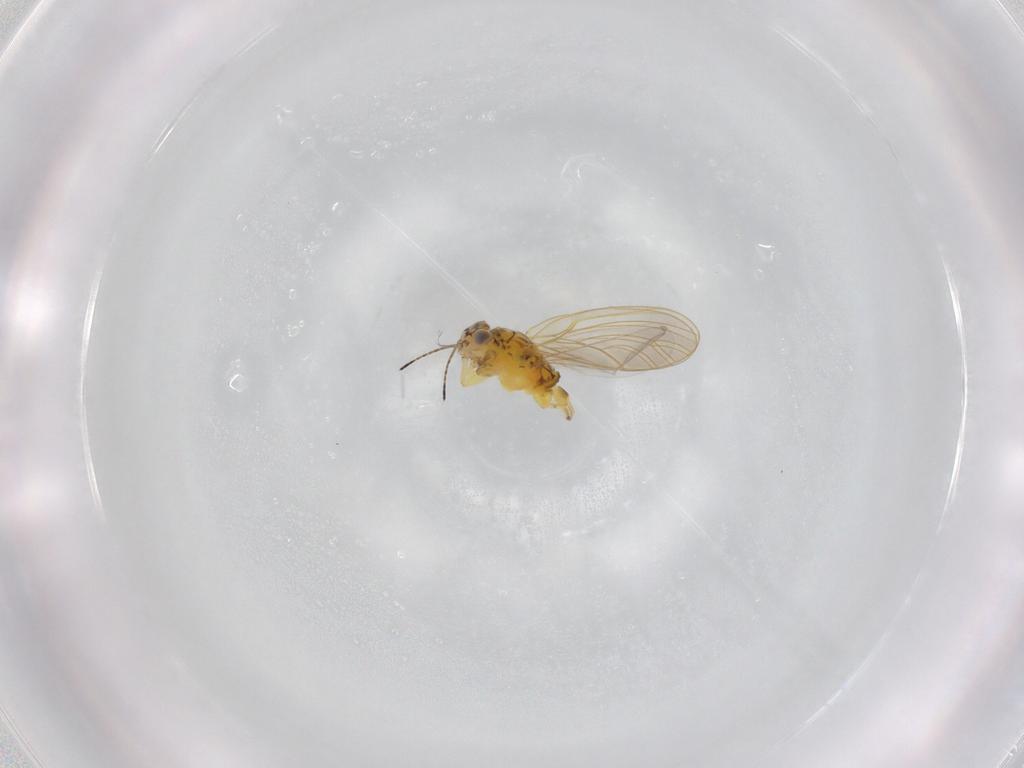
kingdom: Animalia
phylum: Arthropoda
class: Insecta
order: Hemiptera
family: Aphalaridae
